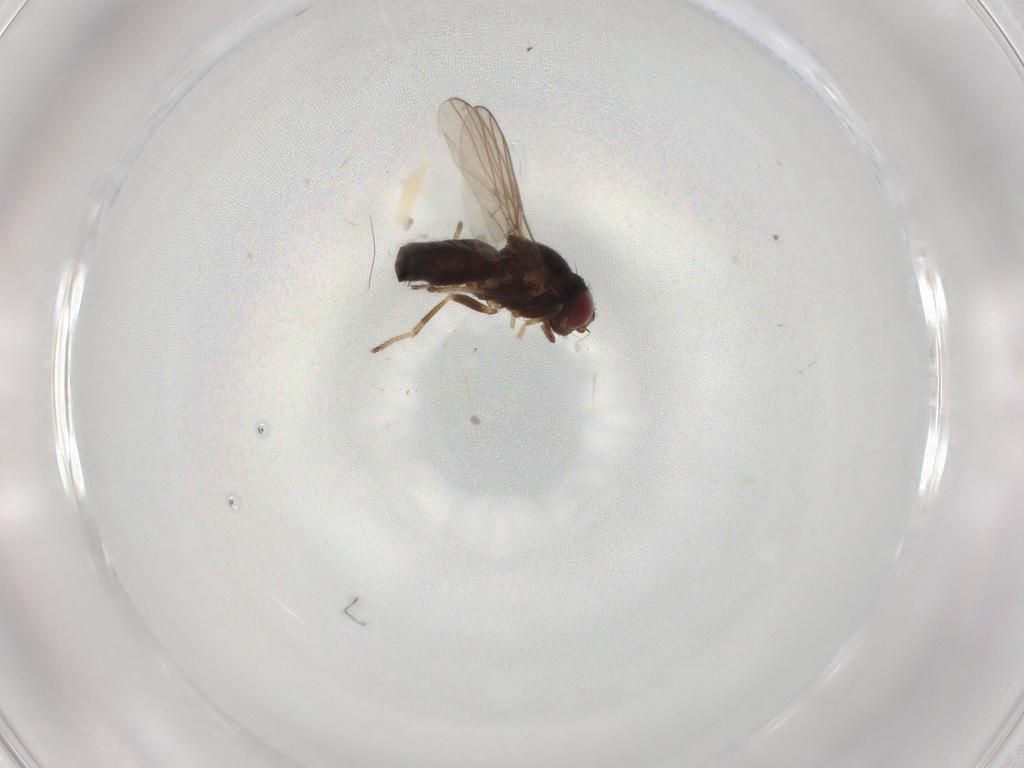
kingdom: Animalia
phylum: Arthropoda
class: Insecta
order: Diptera
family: Chloropidae
